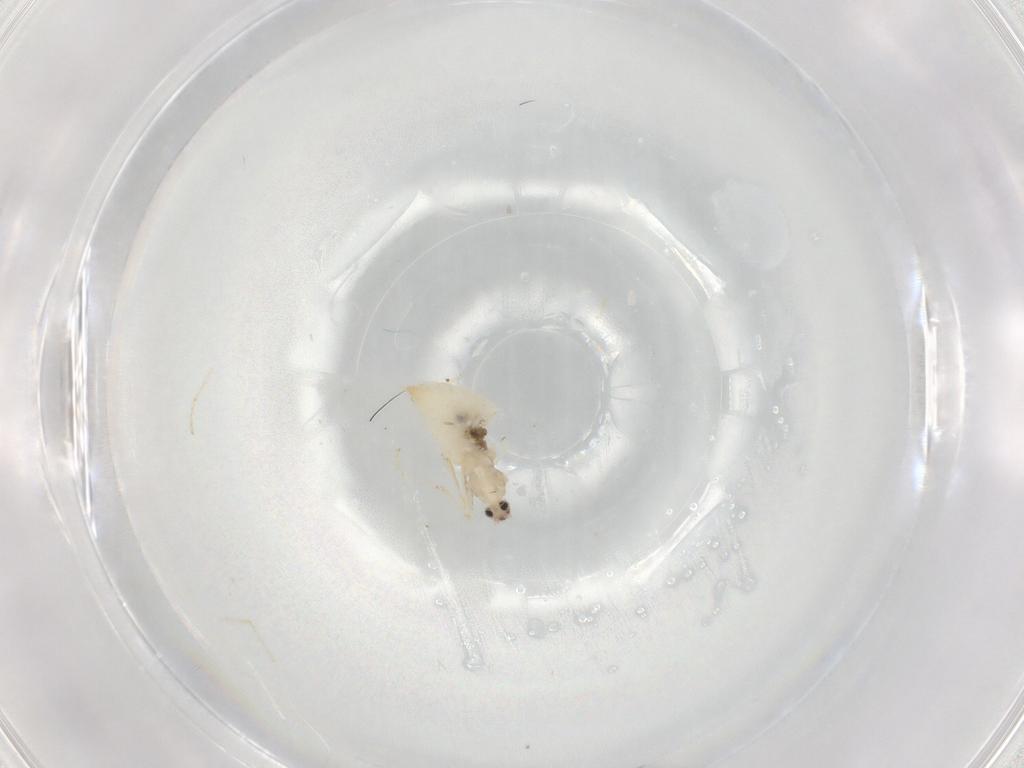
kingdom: Animalia
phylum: Arthropoda
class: Insecta
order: Diptera
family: Cecidomyiidae
